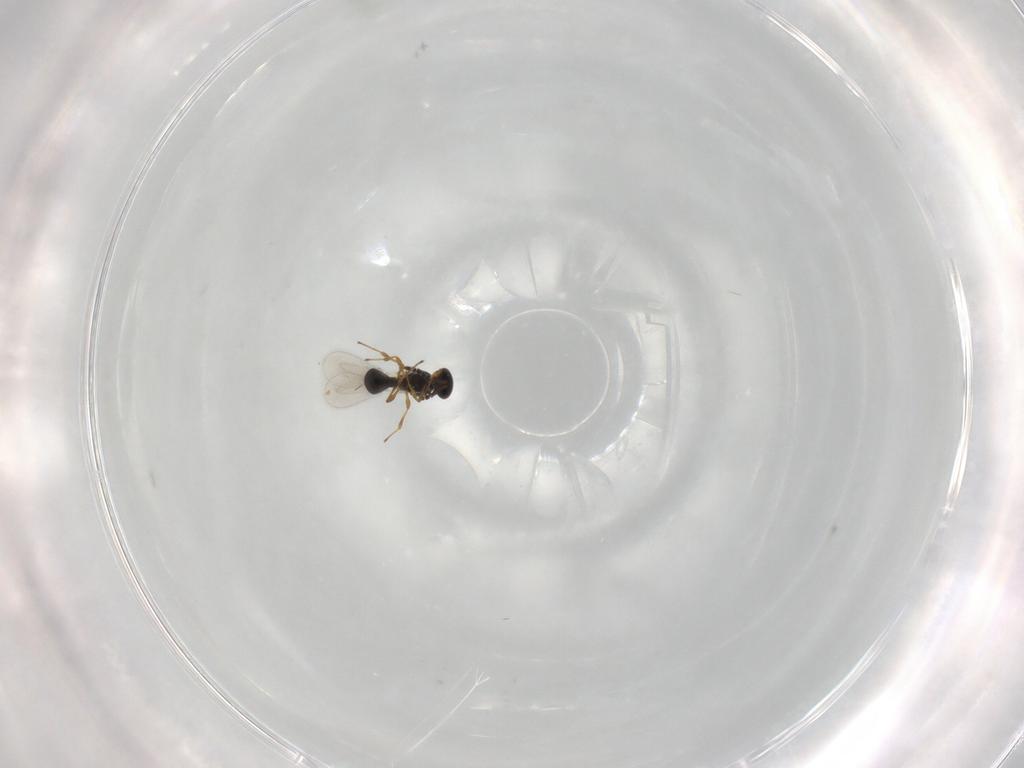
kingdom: Animalia
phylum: Arthropoda
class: Insecta
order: Hymenoptera
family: Platygastridae
